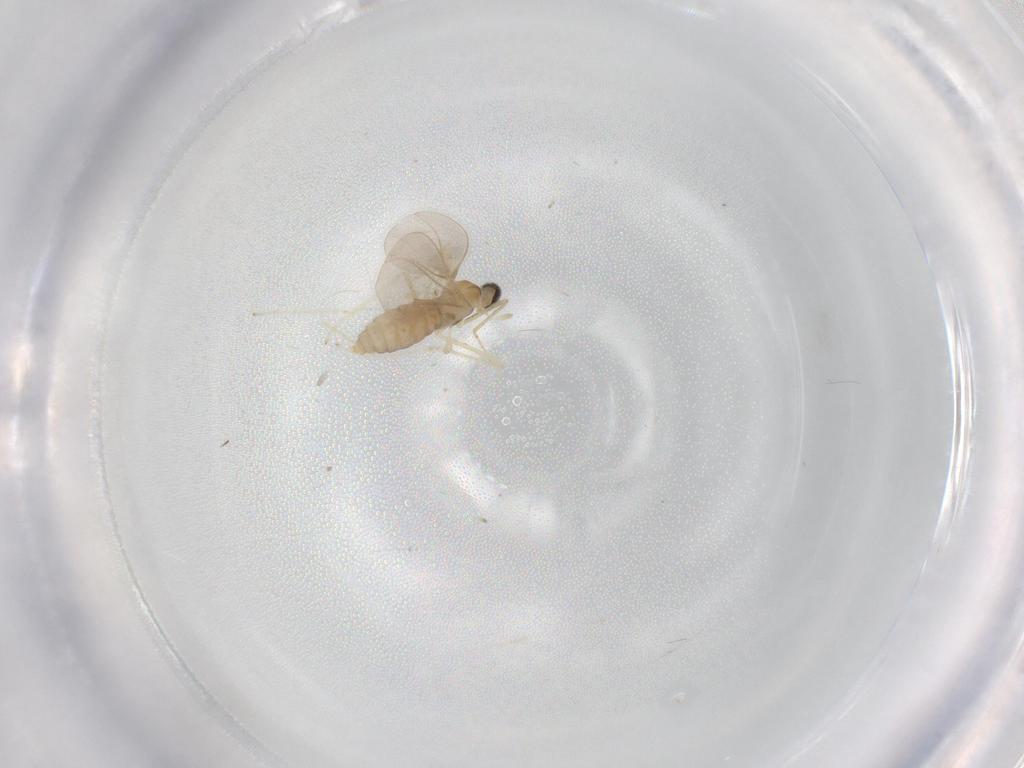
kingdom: Animalia
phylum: Arthropoda
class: Insecta
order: Diptera
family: Cecidomyiidae
